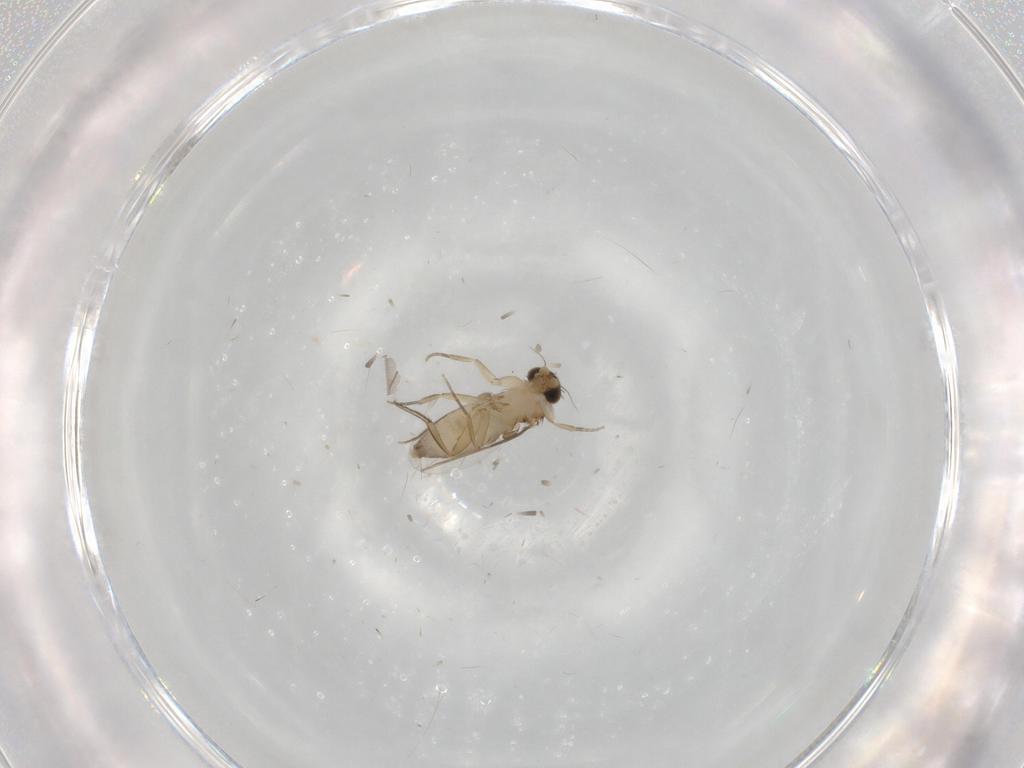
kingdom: Animalia
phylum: Arthropoda
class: Insecta
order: Diptera
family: Phoridae
